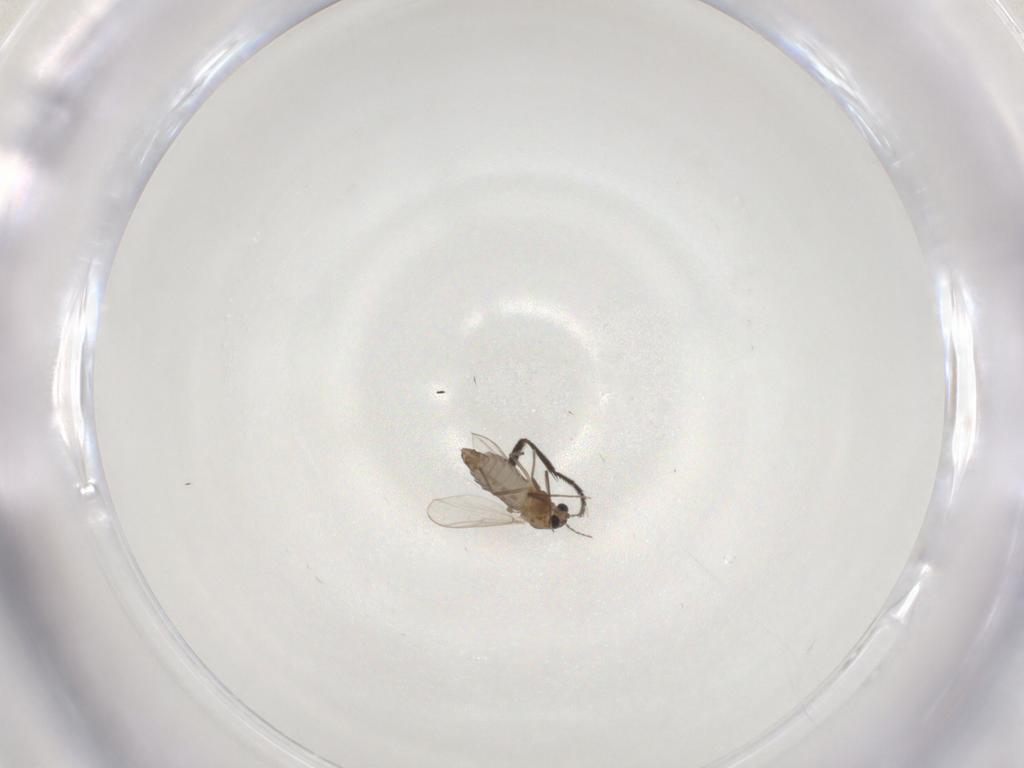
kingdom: Animalia
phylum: Arthropoda
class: Insecta
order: Diptera
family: Milichiidae
